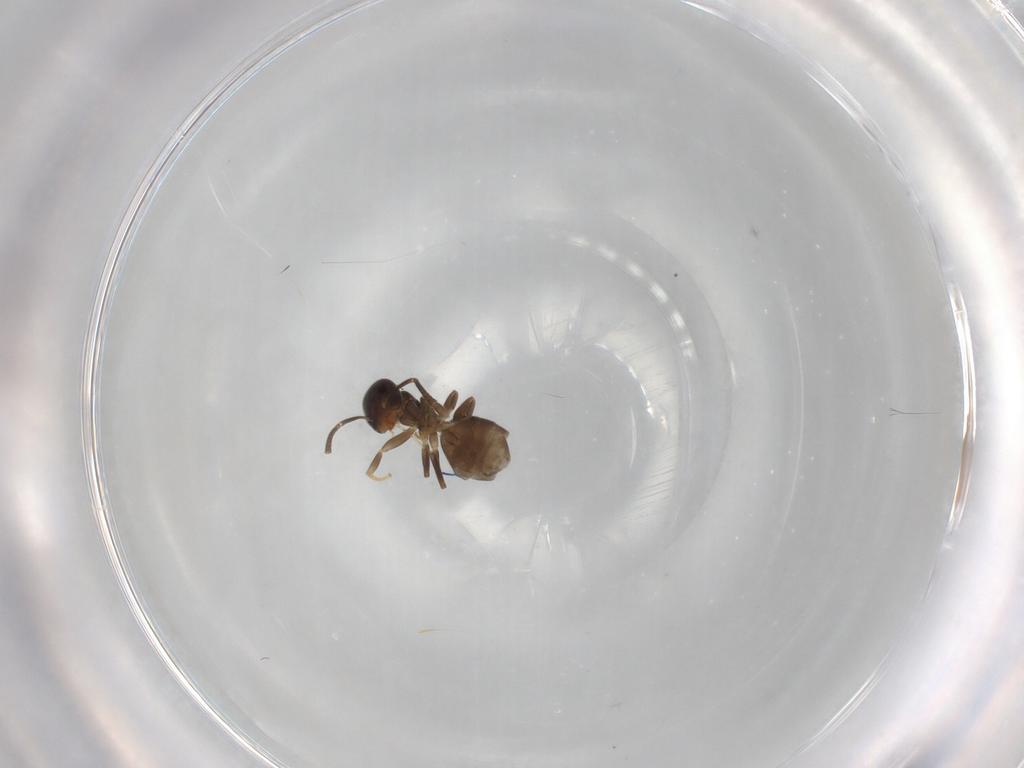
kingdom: Animalia
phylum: Arthropoda
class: Insecta
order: Hymenoptera
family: Formicidae
